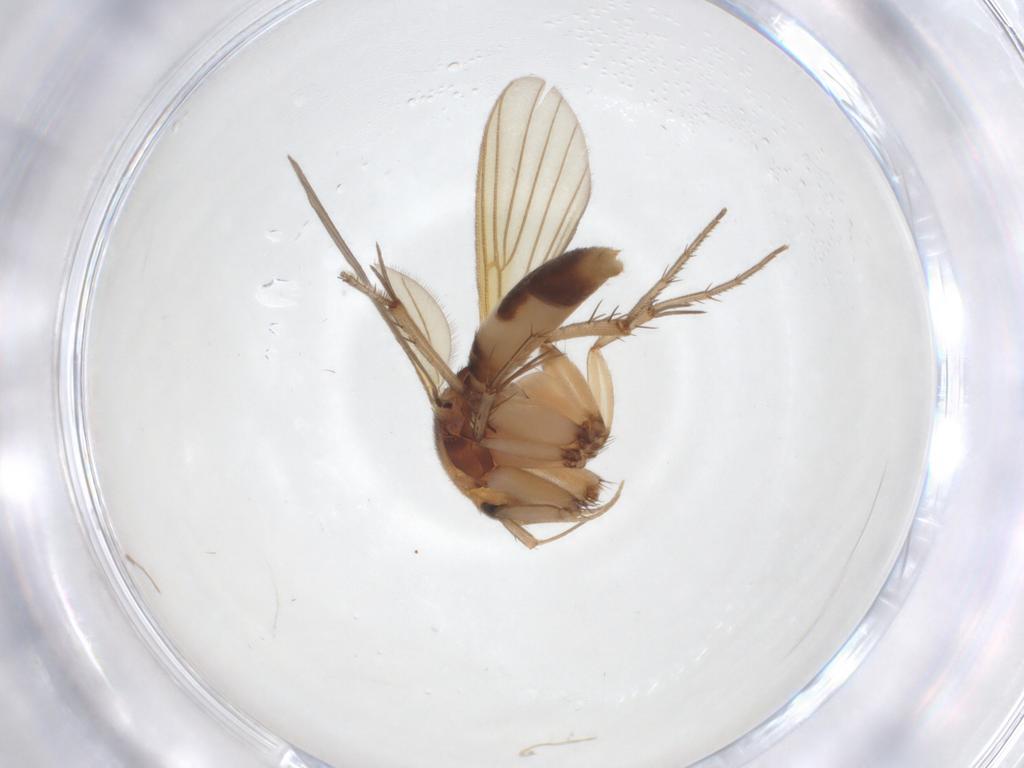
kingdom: Animalia
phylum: Arthropoda
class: Insecta
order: Diptera
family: Mycetophilidae
